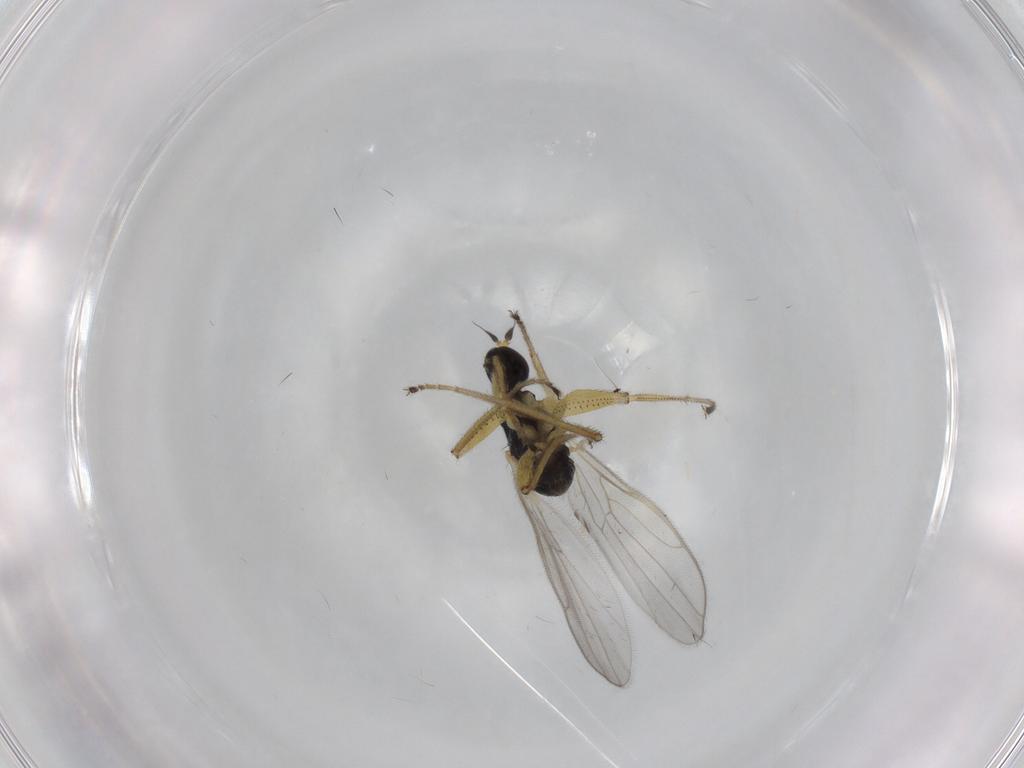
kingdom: Animalia
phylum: Arthropoda
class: Insecta
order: Diptera
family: Hybotidae
